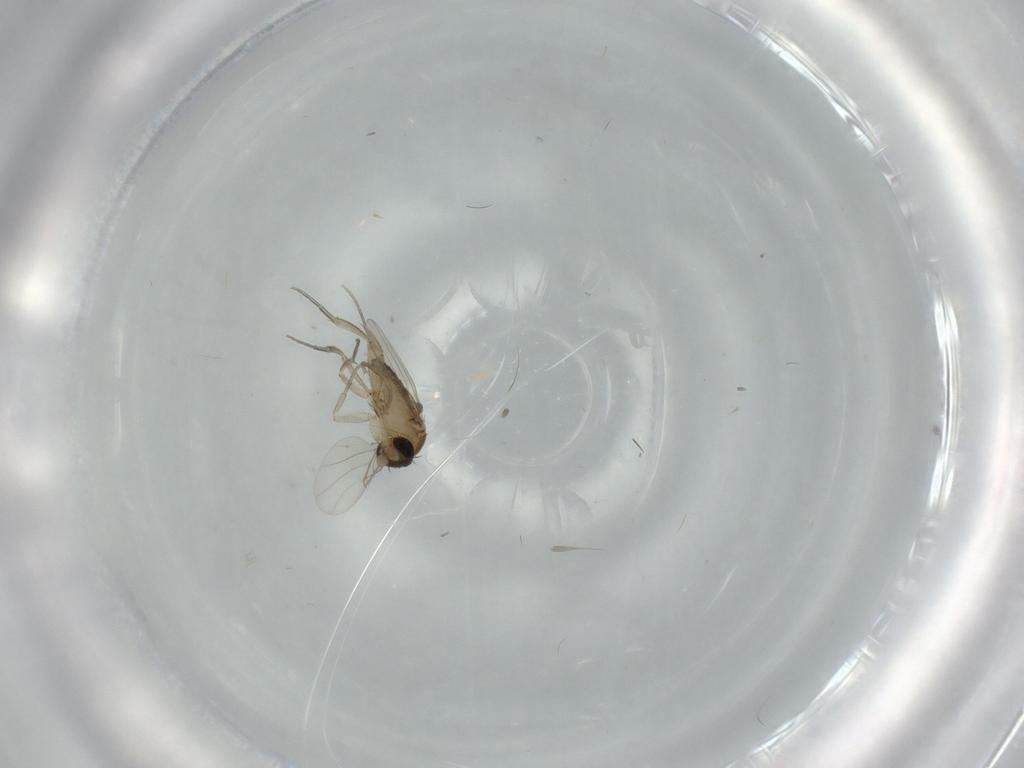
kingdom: Animalia
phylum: Arthropoda
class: Insecta
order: Diptera
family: Phoridae
